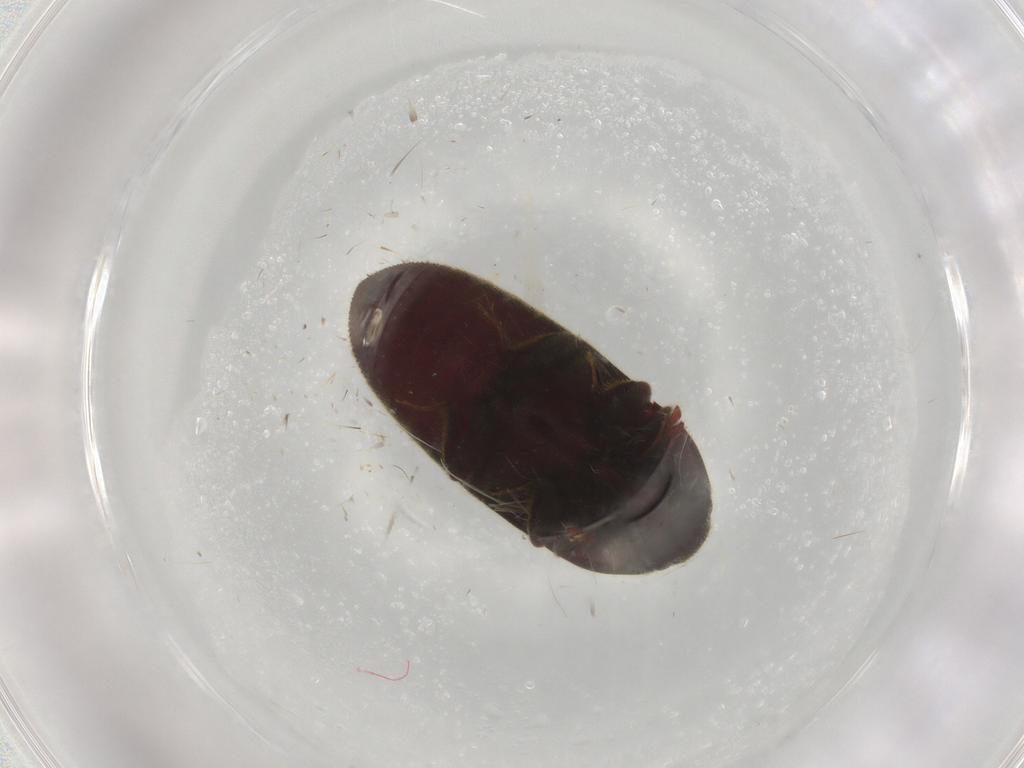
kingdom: Animalia
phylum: Arthropoda
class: Insecta
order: Coleoptera
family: Throscidae
